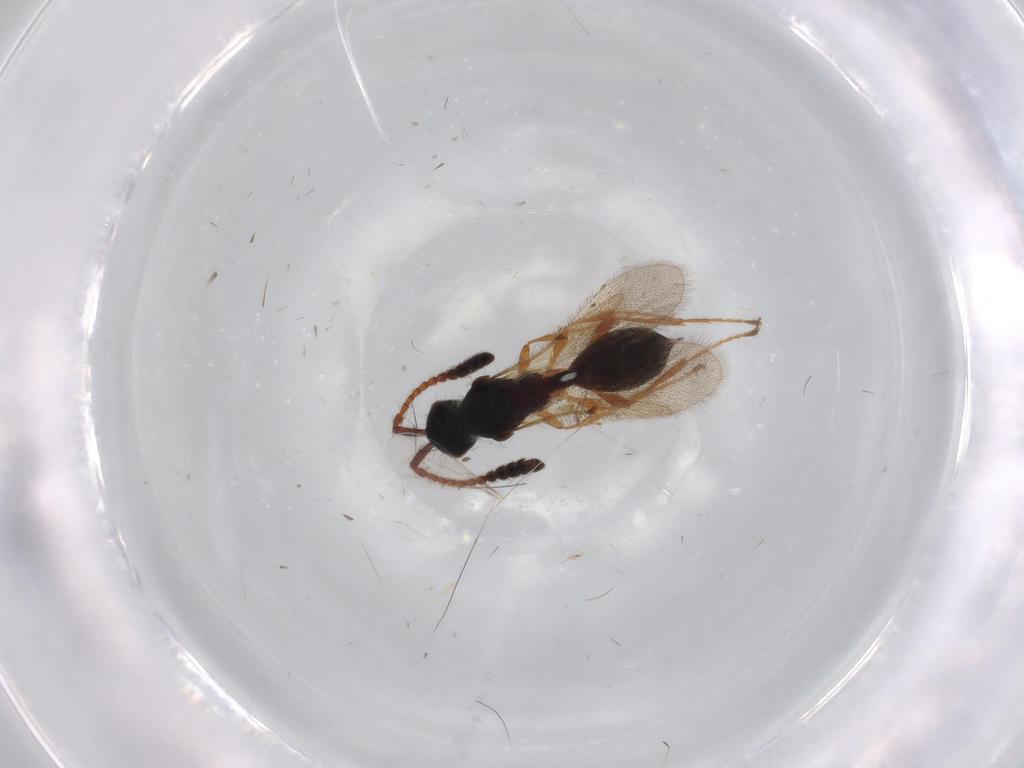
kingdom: Animalia
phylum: Arthropoda
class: Insecta
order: Hymenoptera
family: Diapriidae
